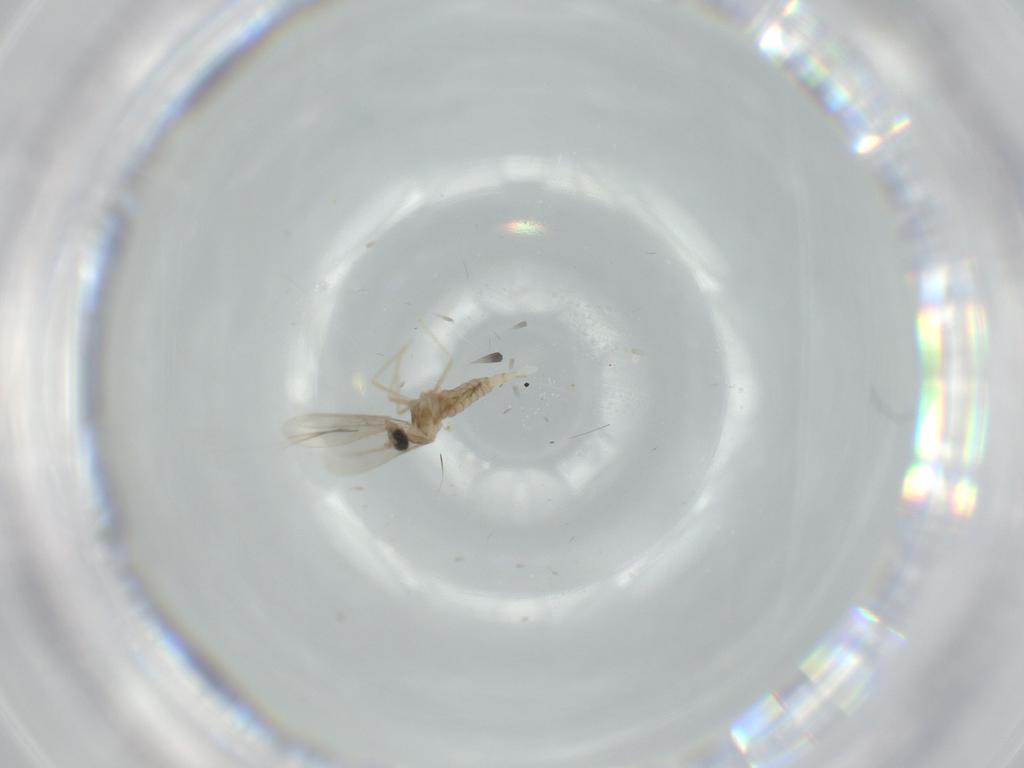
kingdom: Animalia
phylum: Arthropoda
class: Insecta
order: Diptera
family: Cecidomyiidae
